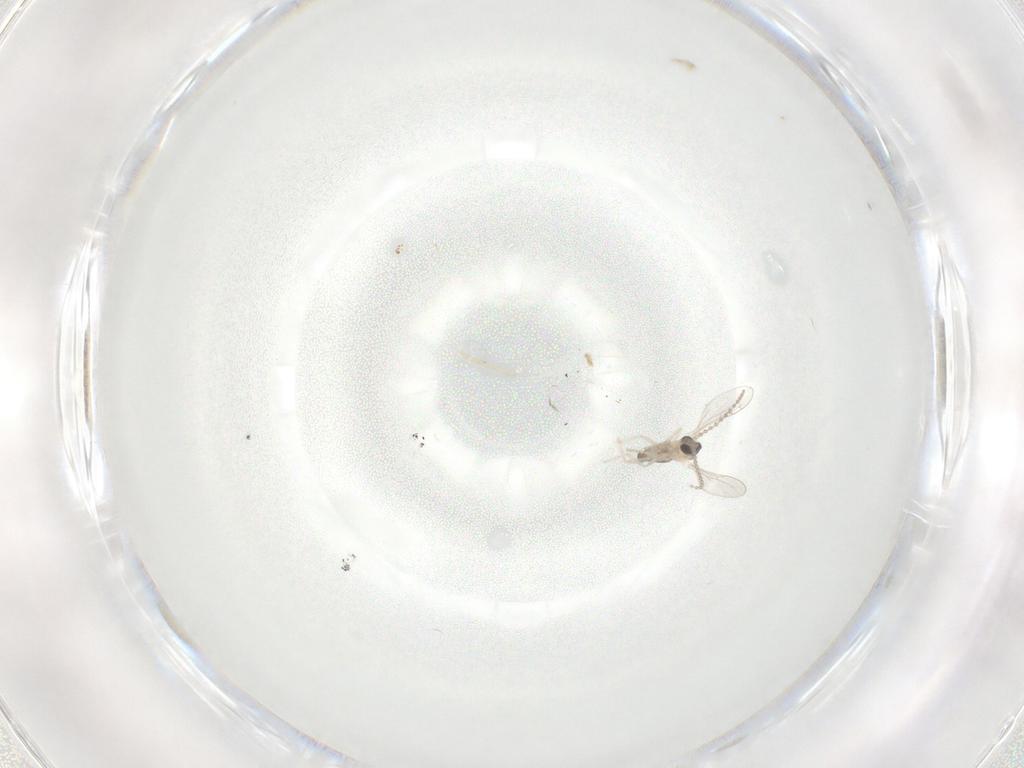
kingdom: Animalia
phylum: Arthropoda
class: Insecta
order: Diptera
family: Cecidomyiidae
